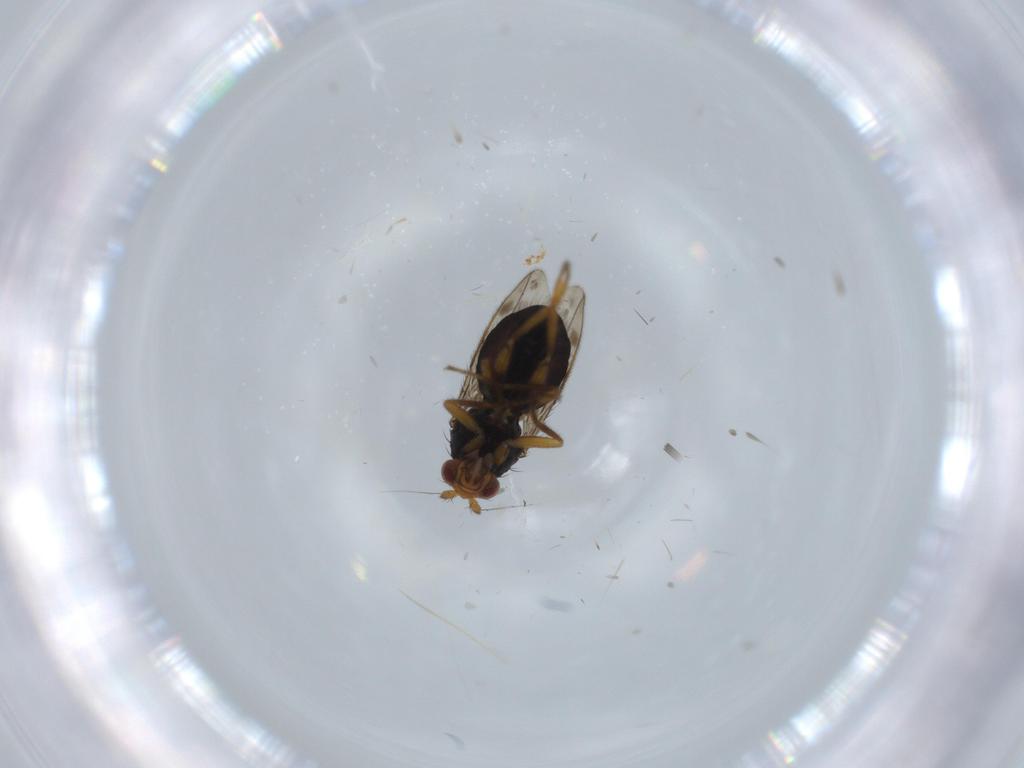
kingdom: Animalia
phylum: Arthropoda
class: Insecta
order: Diptera
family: Sphaeroceridae
